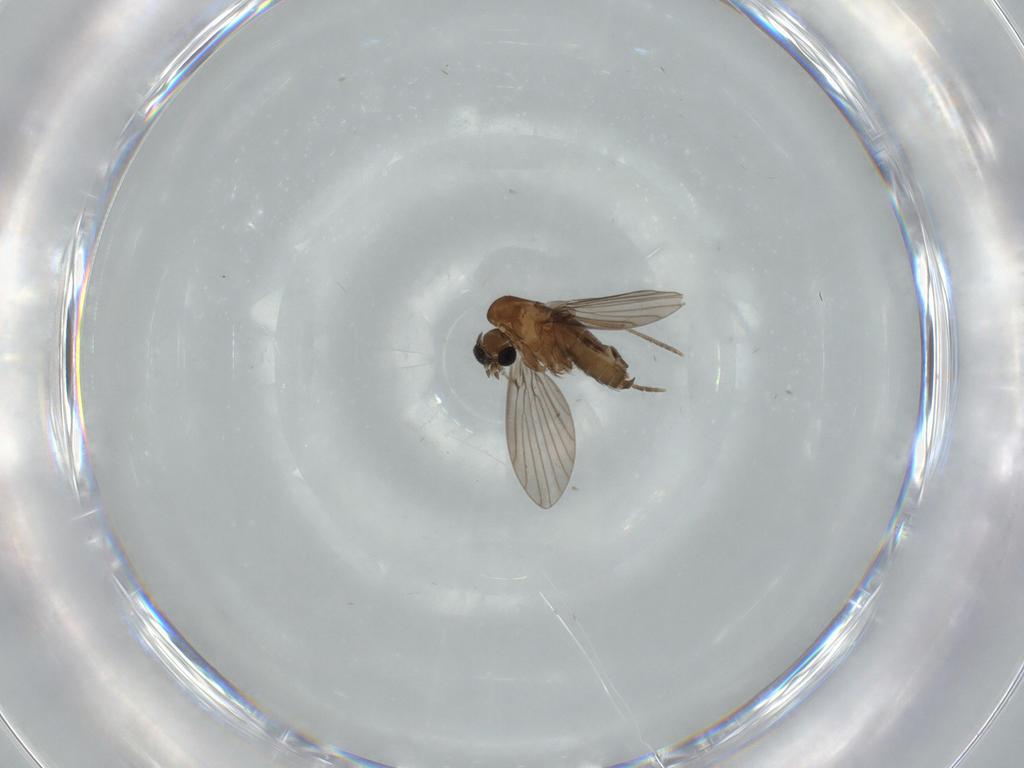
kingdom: Animalia
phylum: Arthropoda
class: Insecta
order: Diptera
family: Psychodidae
